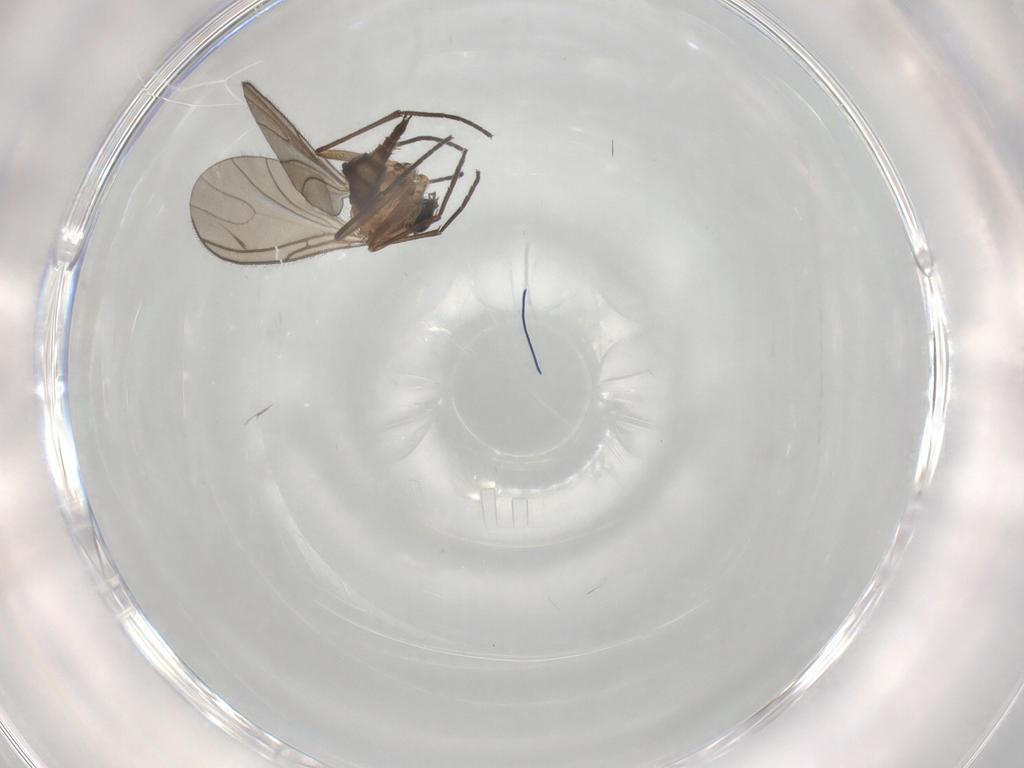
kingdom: Animalia
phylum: Arthropoda
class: Insecta
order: Diptera
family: Sciaridae
